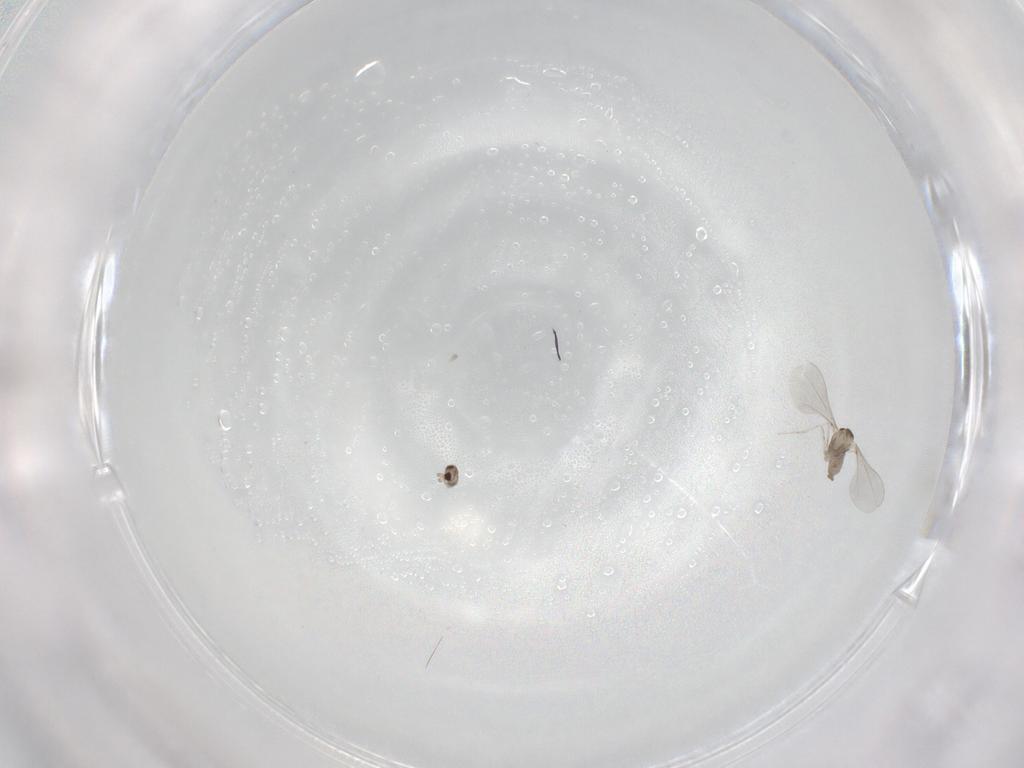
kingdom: Animalia
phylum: Arthropoda
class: Insecta
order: Diptera
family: Cecidomyiidae
